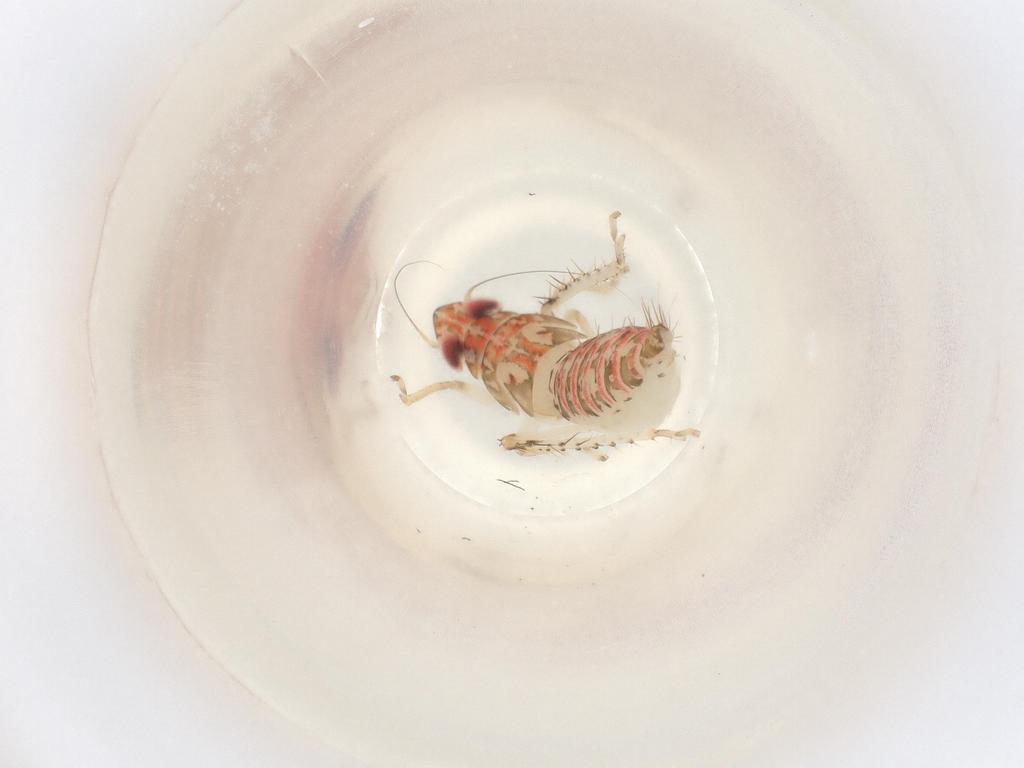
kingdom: Animalia
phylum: Arthropoda
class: Insecta
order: Hemiptera
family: Cicadellidae
